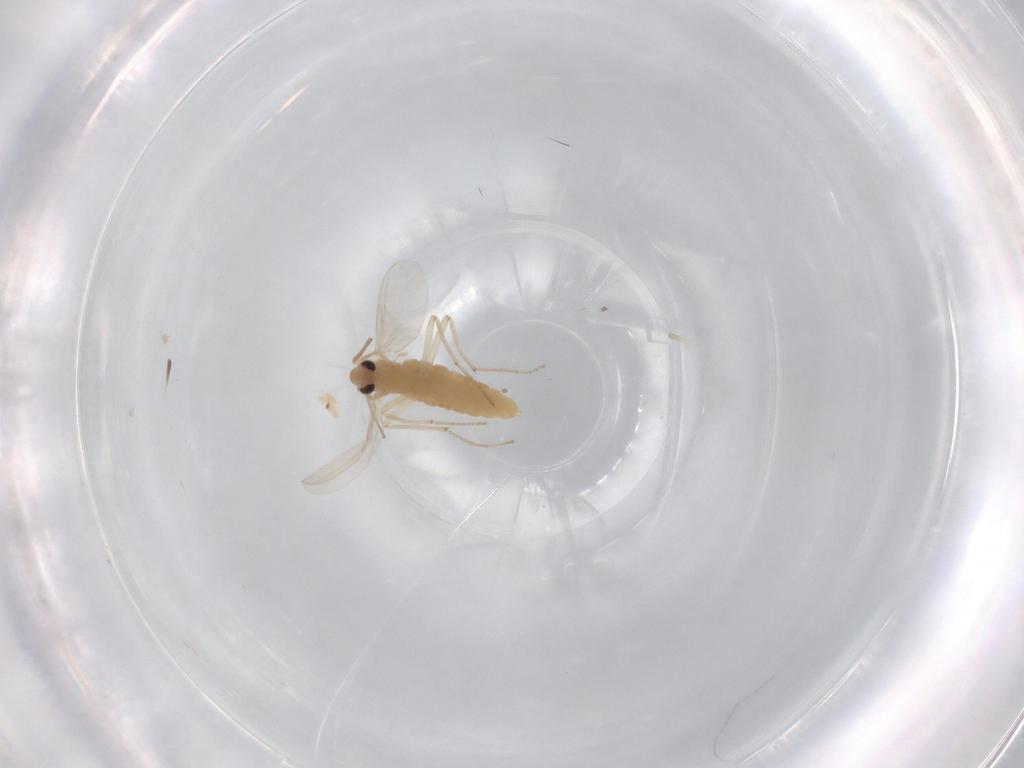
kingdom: Animalia
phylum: Arthropoda
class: Insecta
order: Diptera
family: Chironomidae
